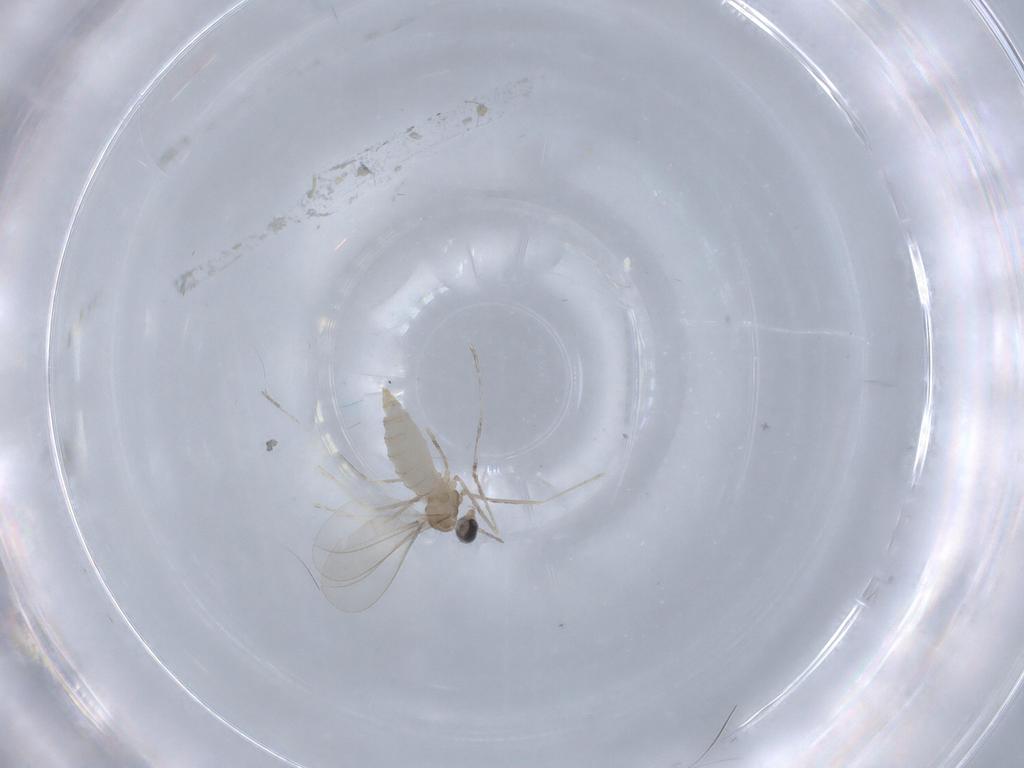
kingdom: Animalia
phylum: Arthropoda
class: Insecta
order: Diptera
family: Cecidomyiidae
